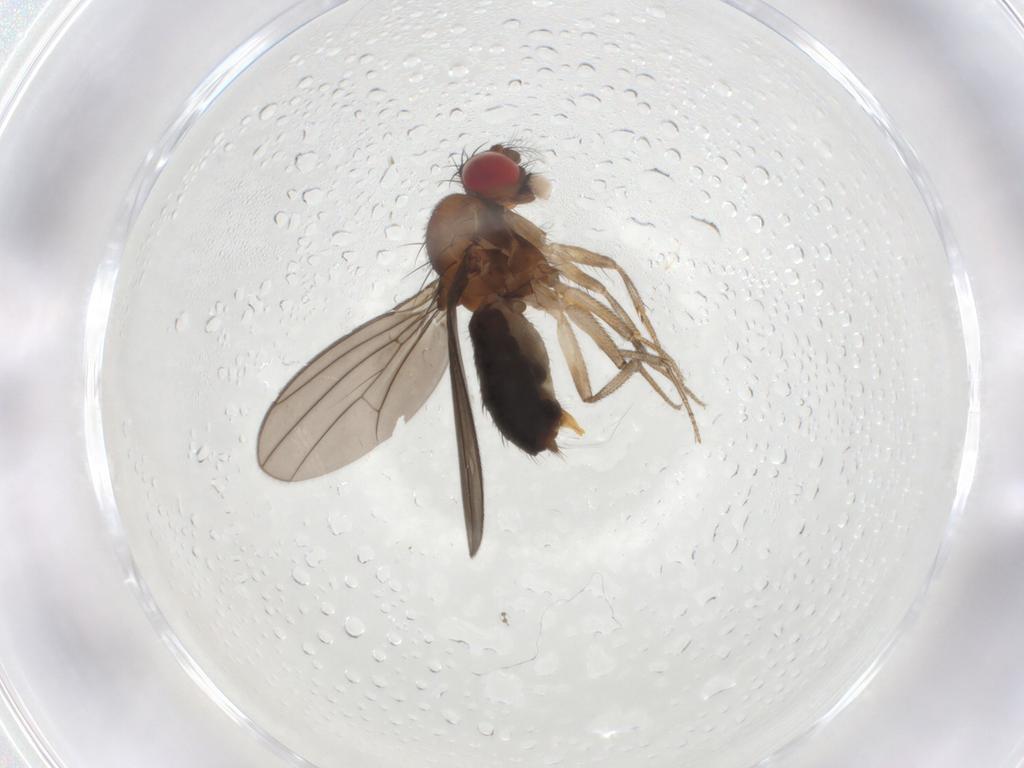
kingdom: Animalia
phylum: Arthropoda
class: Insecta
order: Diptera
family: Drosophilidae
